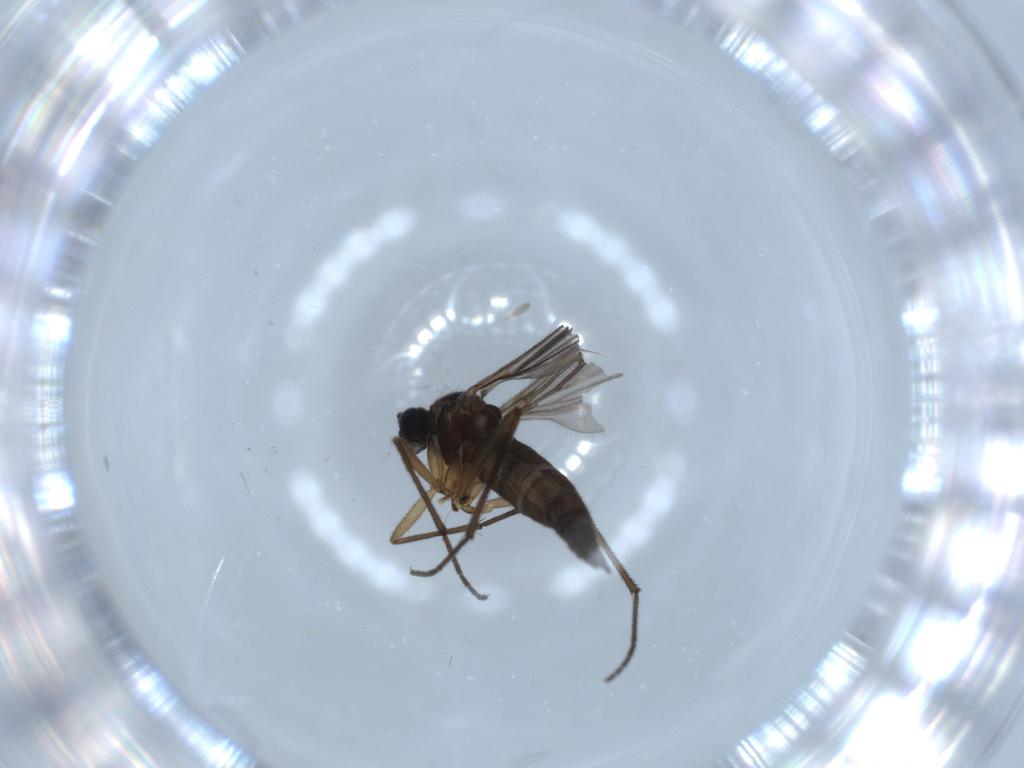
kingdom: Animalia
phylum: Arthropoda
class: Insecta
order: Diptera
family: Sciaridae
